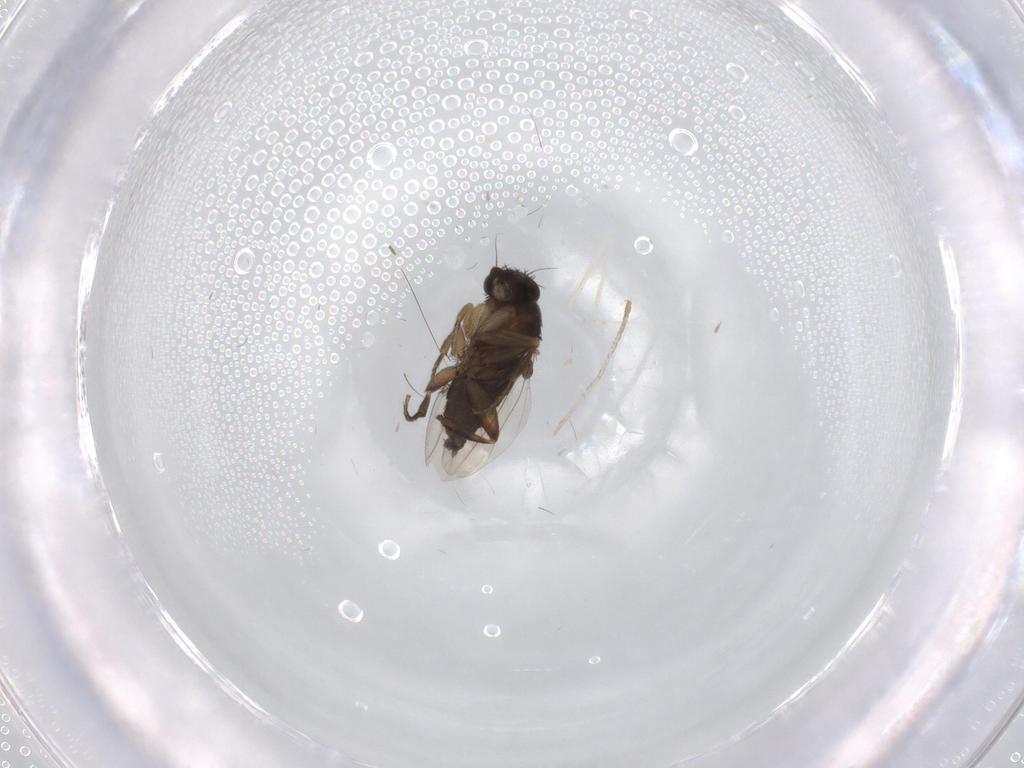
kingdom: Animalia
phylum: Arthropoda
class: Insecta
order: Diptera
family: Phoridae
